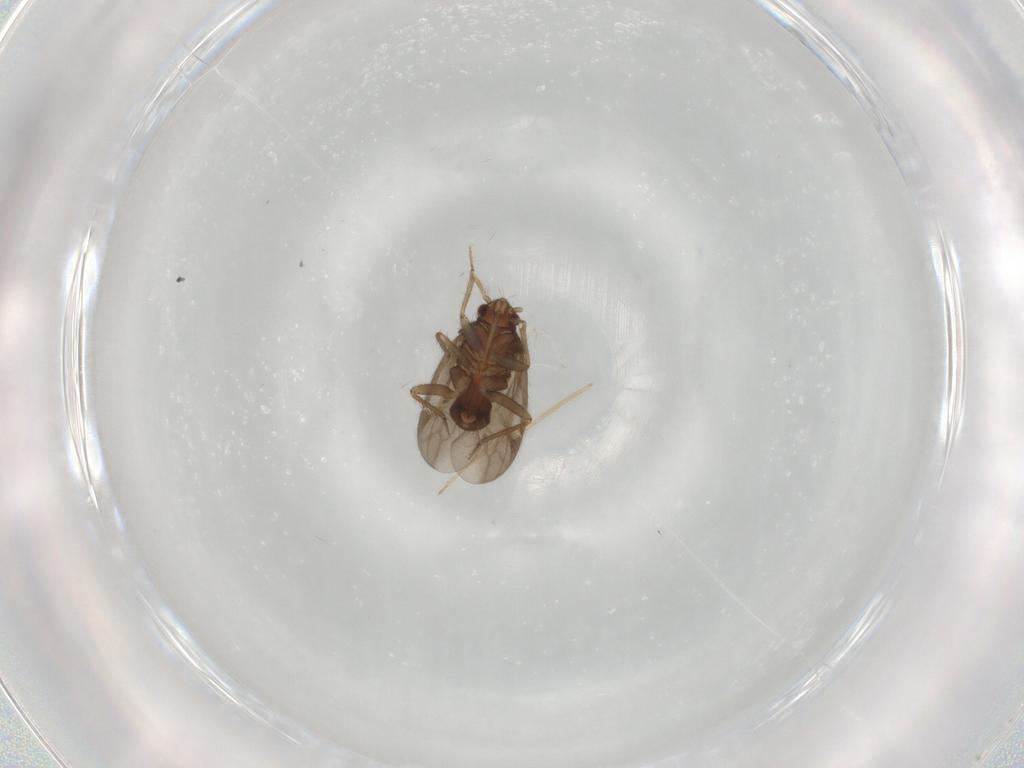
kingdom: Animalia
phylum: Arthropoda
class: Insecta
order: Hemiptera
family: Ceratocombidae
